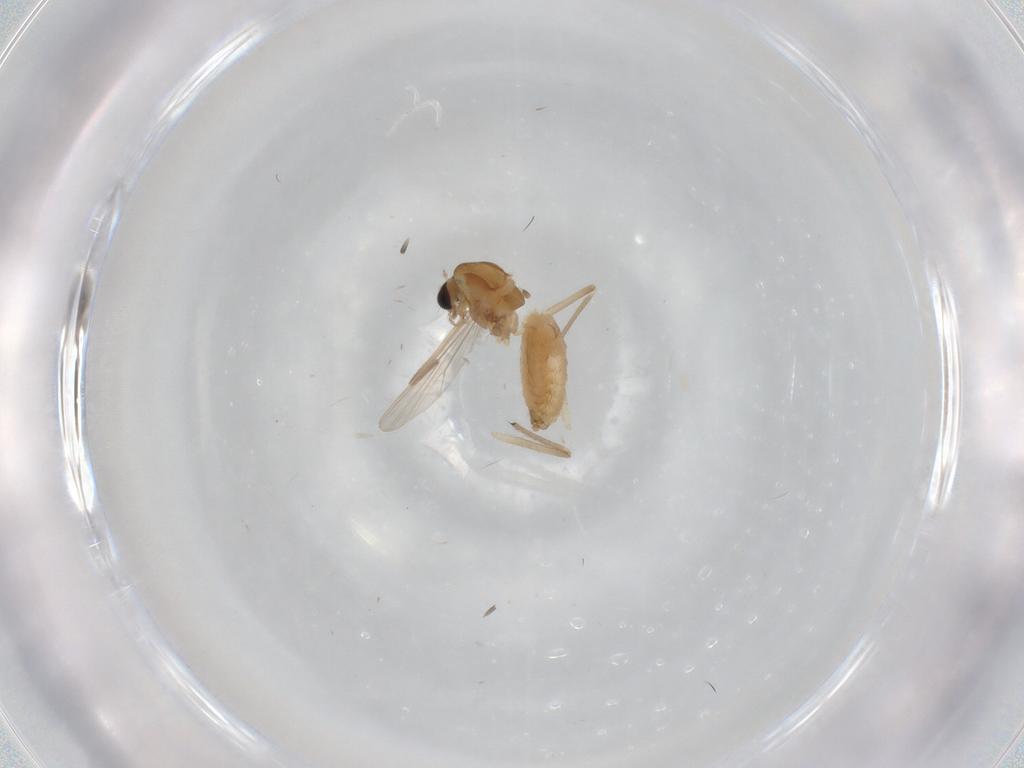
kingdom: Animalia
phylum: Arthropoda
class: Insecta
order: Diptera
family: Chironomidae
